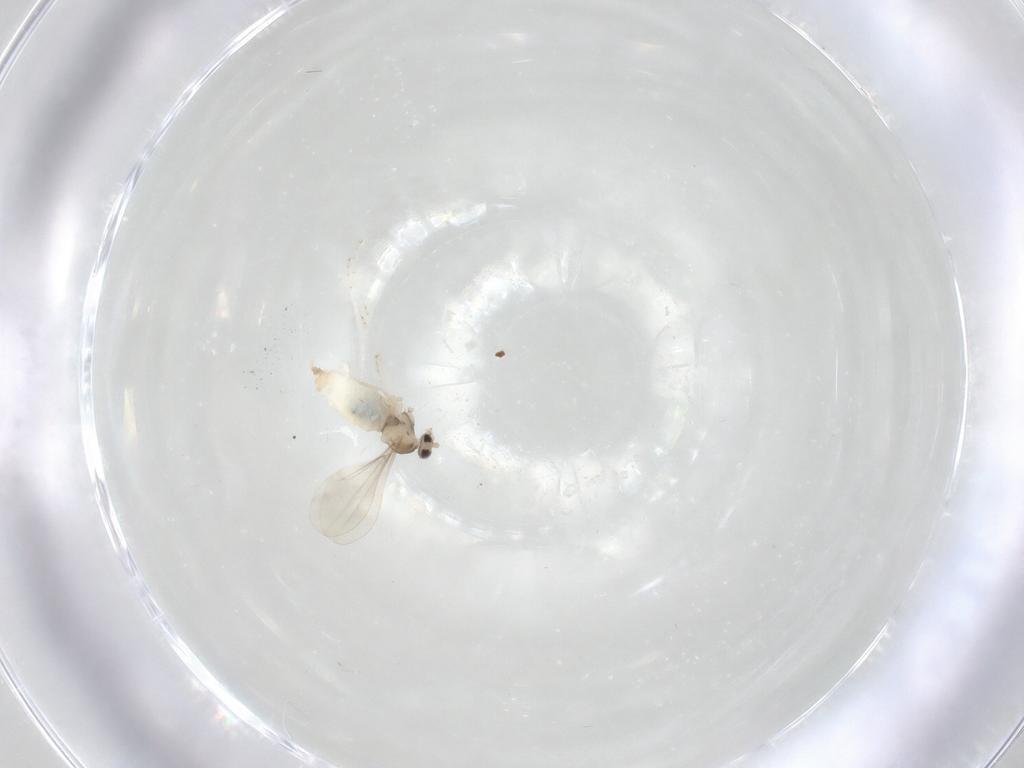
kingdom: Animalia
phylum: Arthropoda
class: Insecta
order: Diptera
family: Cecidomyiidae
